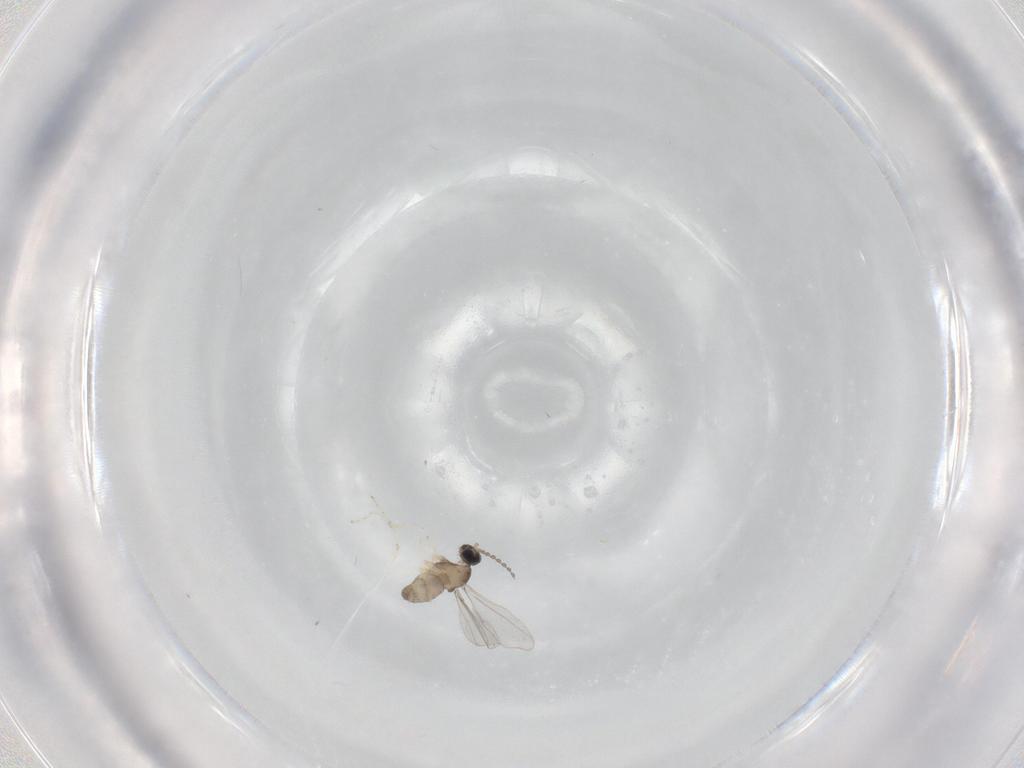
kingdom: Animalia
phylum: Arthropoda
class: Insecta
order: Diptera
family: Cecidomyiidae
